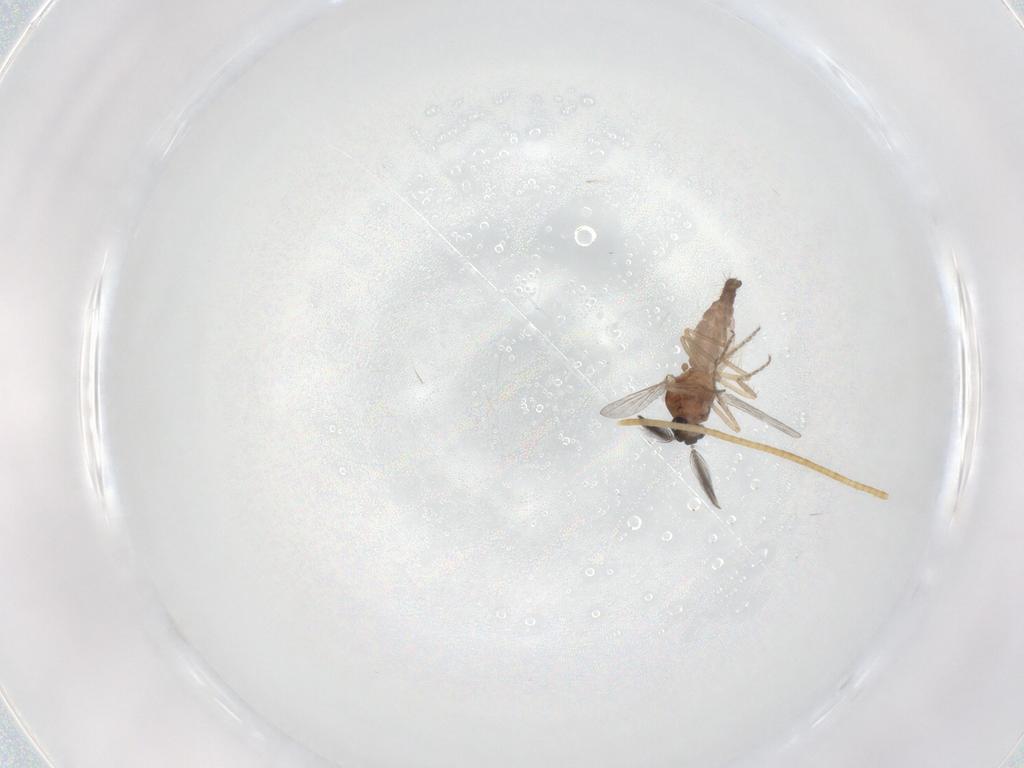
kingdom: Animalia
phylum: Arthropoda
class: Insecta
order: Diptera
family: Ceratopogonidae
